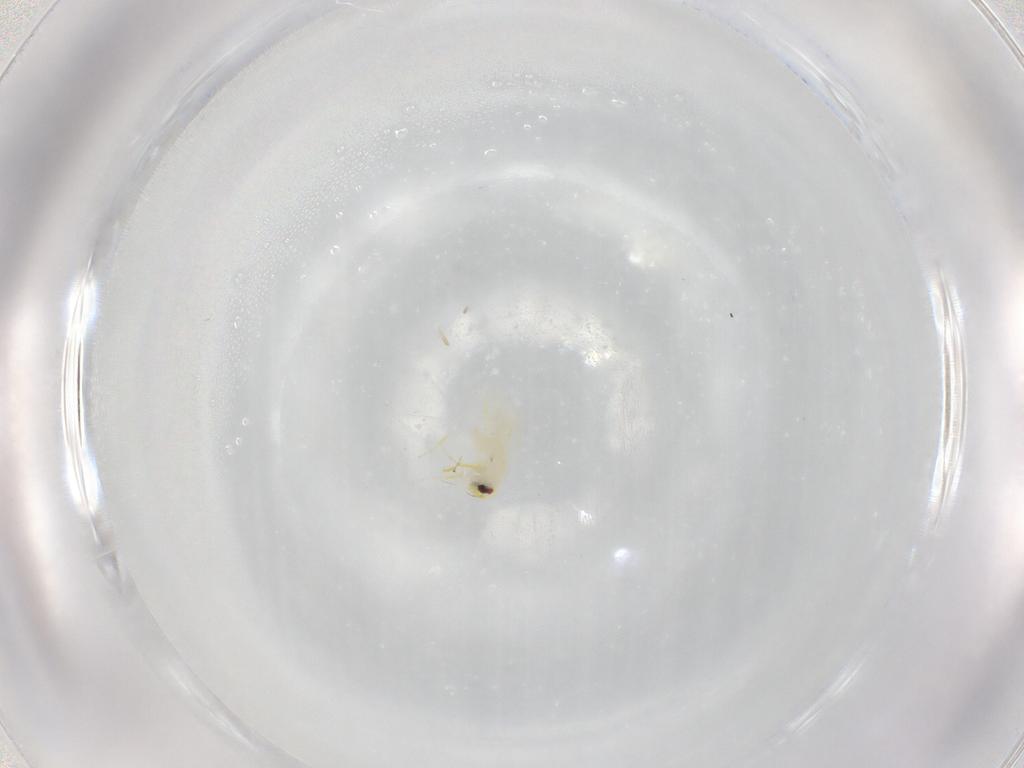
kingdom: Animalia
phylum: Arthropoda
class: Insecta
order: Hemiptera
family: Aleyrodidae
